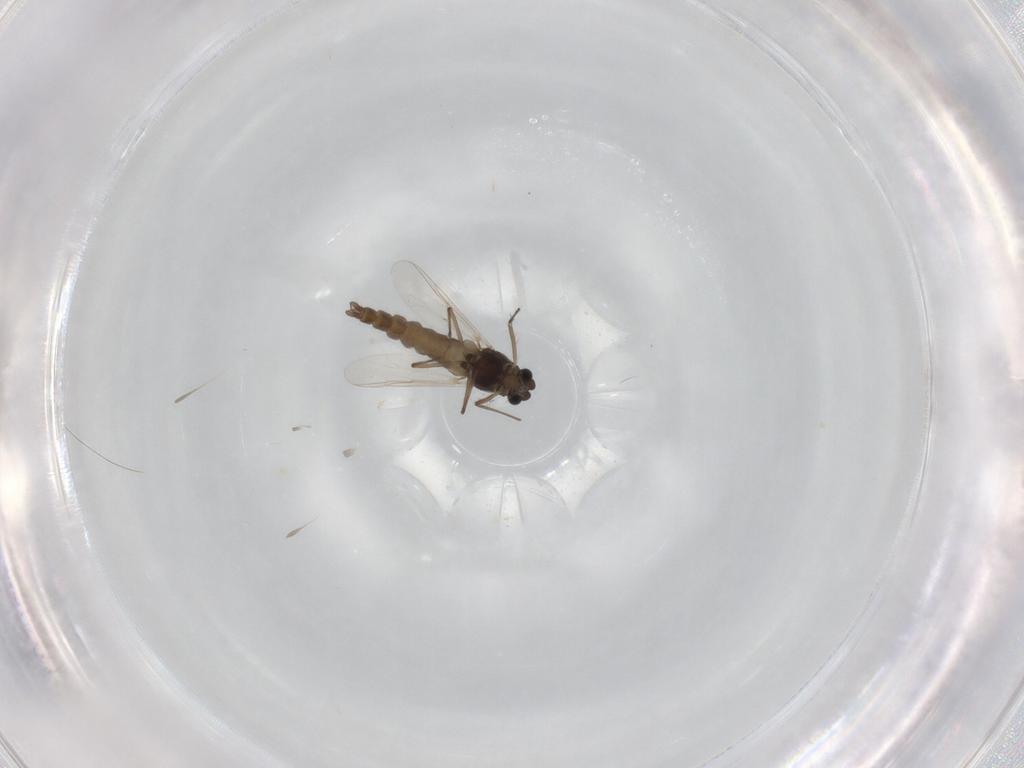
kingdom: Animalia
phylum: Arthropoda
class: Insecta
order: Diptera
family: Chironomidae
